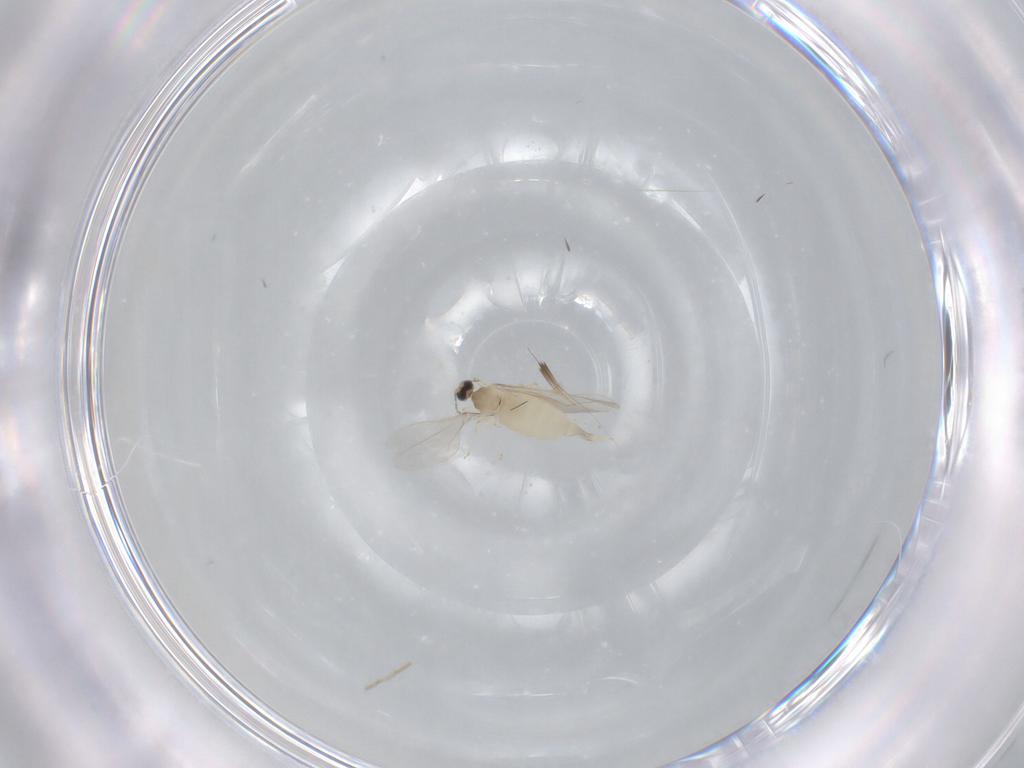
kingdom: Animalia
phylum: Arthropoda
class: Insecta
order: Diptera
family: Cecidomyiidae
